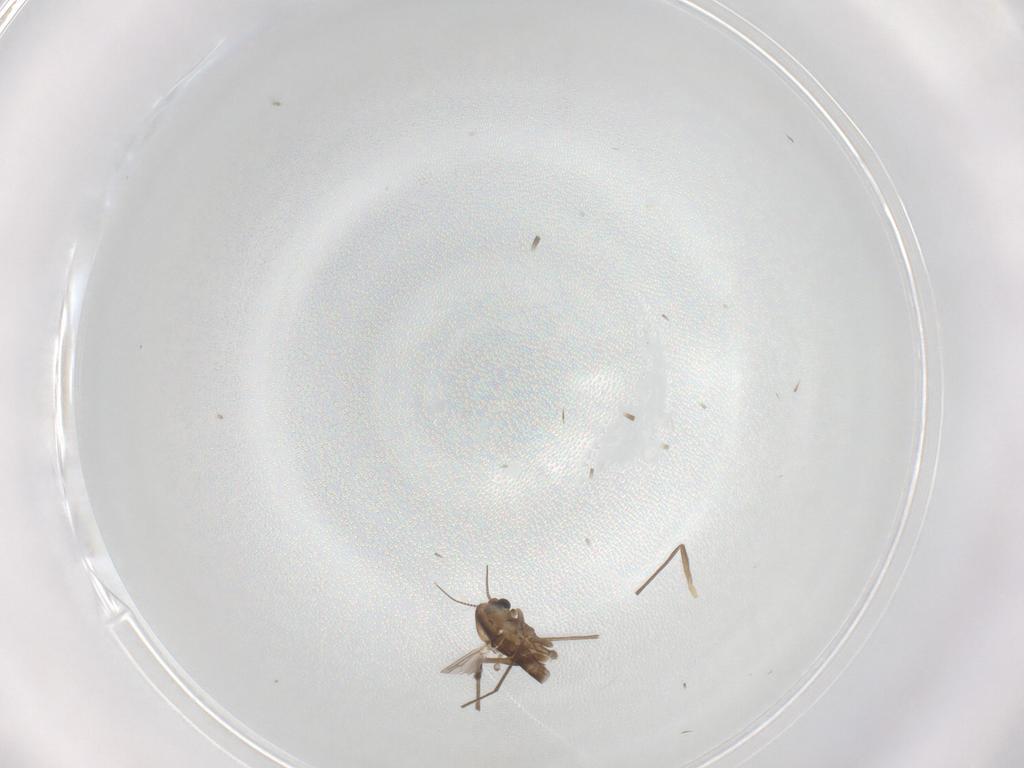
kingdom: Animalia
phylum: Arthropoda
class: Insecta
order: Diptera
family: Chironomidae
